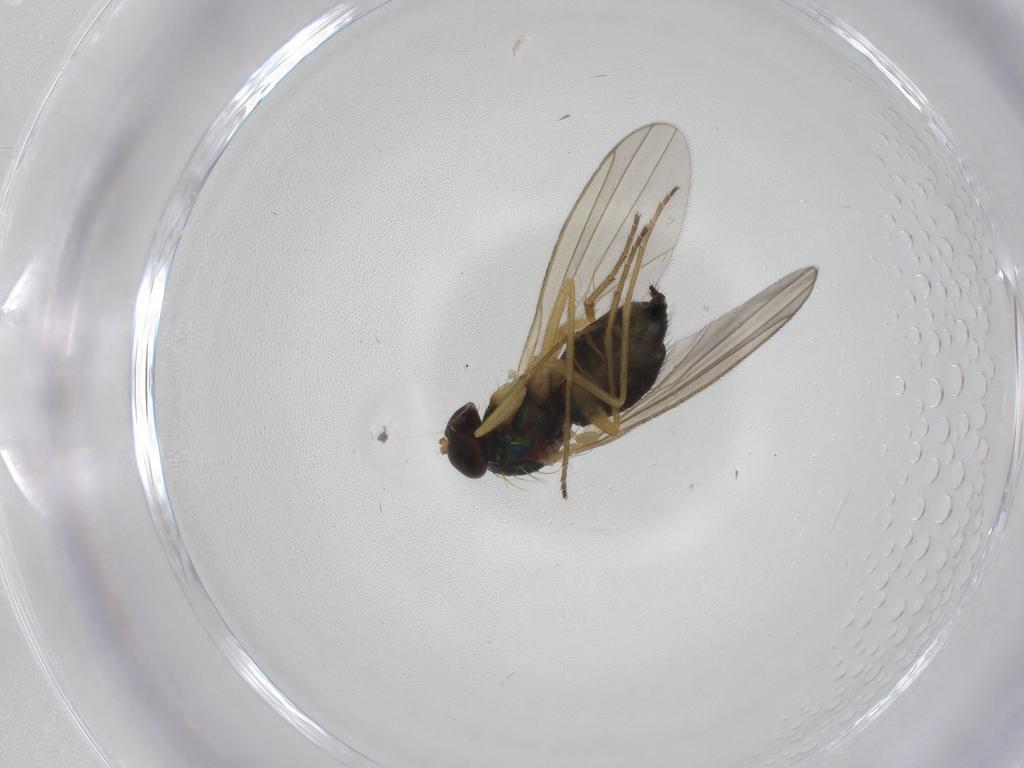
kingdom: Animalia
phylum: Arthropoda
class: Insecta
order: Diptera
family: Dolichopodidae
